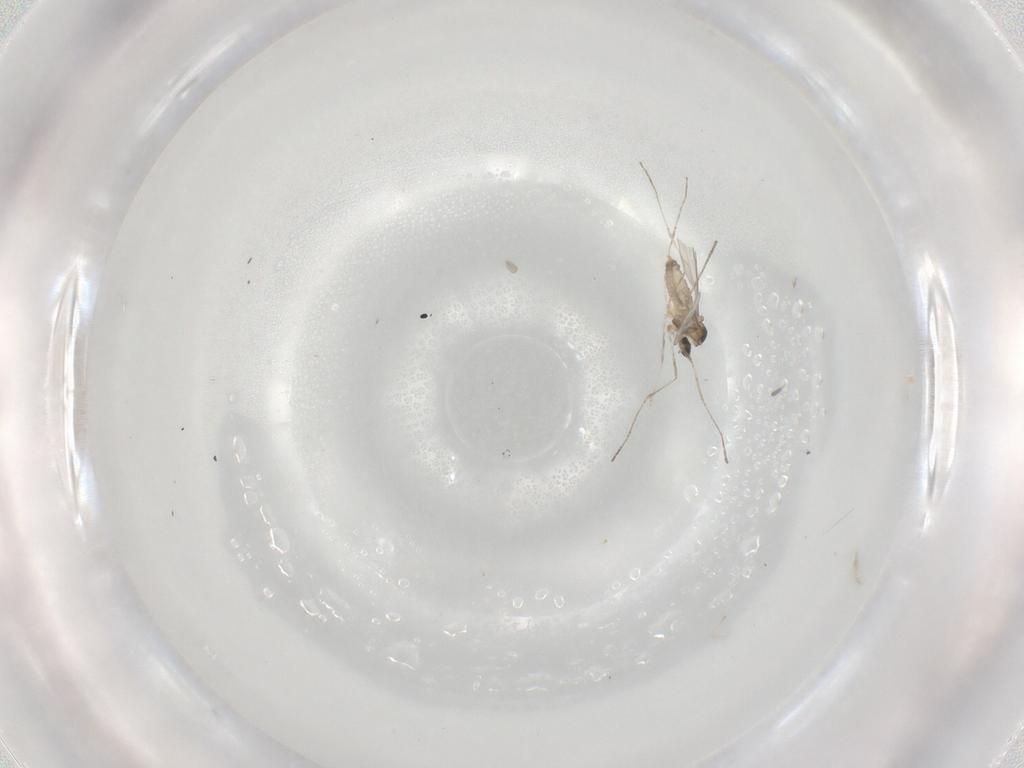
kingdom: Animalia
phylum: Arthropoda
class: Insecta
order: Diptera
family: Cecidomyiidae
